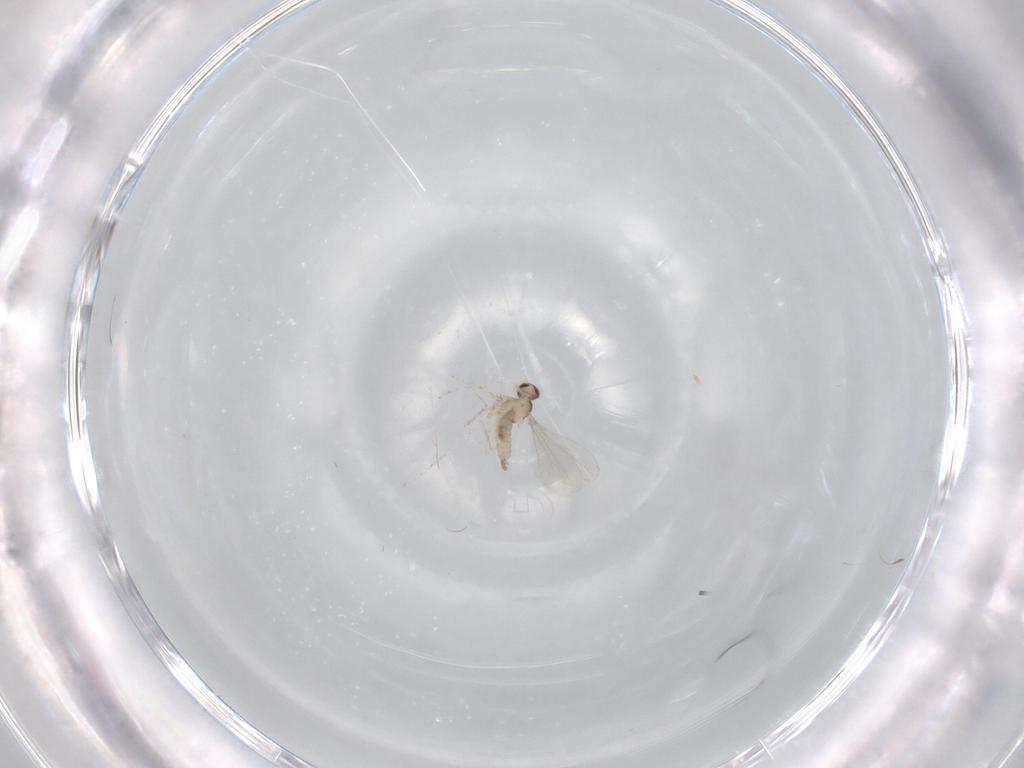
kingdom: Animalia
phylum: Arthropoda
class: Insecta
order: Diptera
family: Cecidomyiidae
